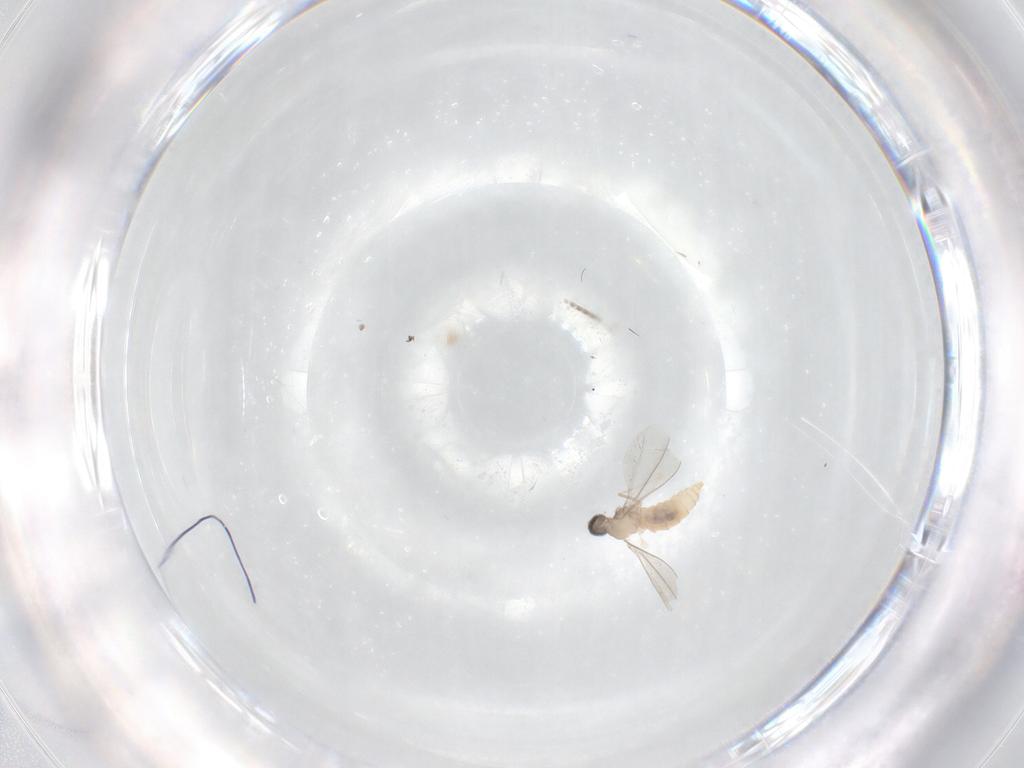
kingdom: Animalia
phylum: Arthropoda
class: Insecta
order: Diptera
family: Cecidomyiidae
